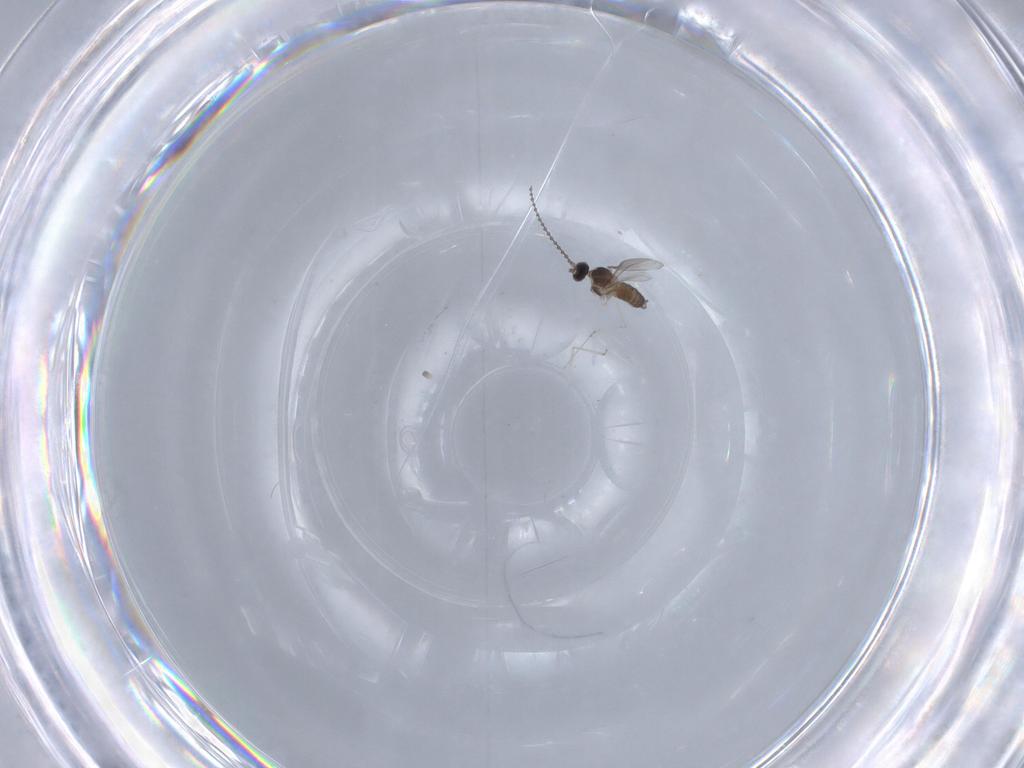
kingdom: Animalia
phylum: Arthropoda
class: Insecta
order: Diptera
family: Cecidomyiidae
